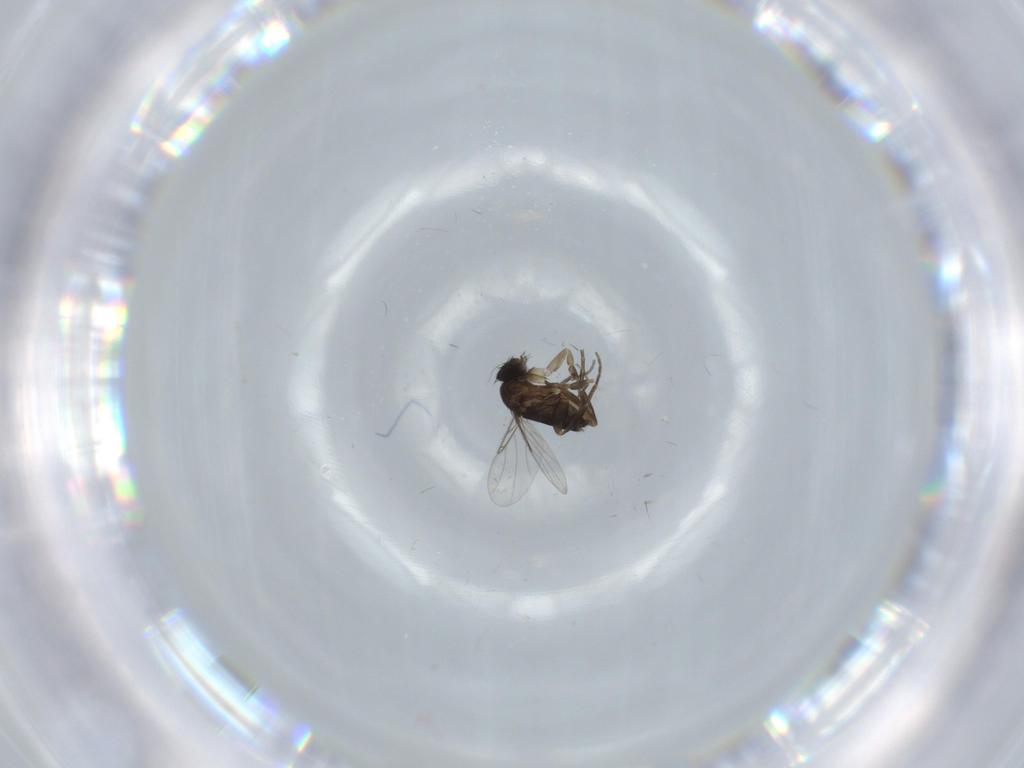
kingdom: Animalia
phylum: Arthropoda
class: Insecta
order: Diptera
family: Phoridae
